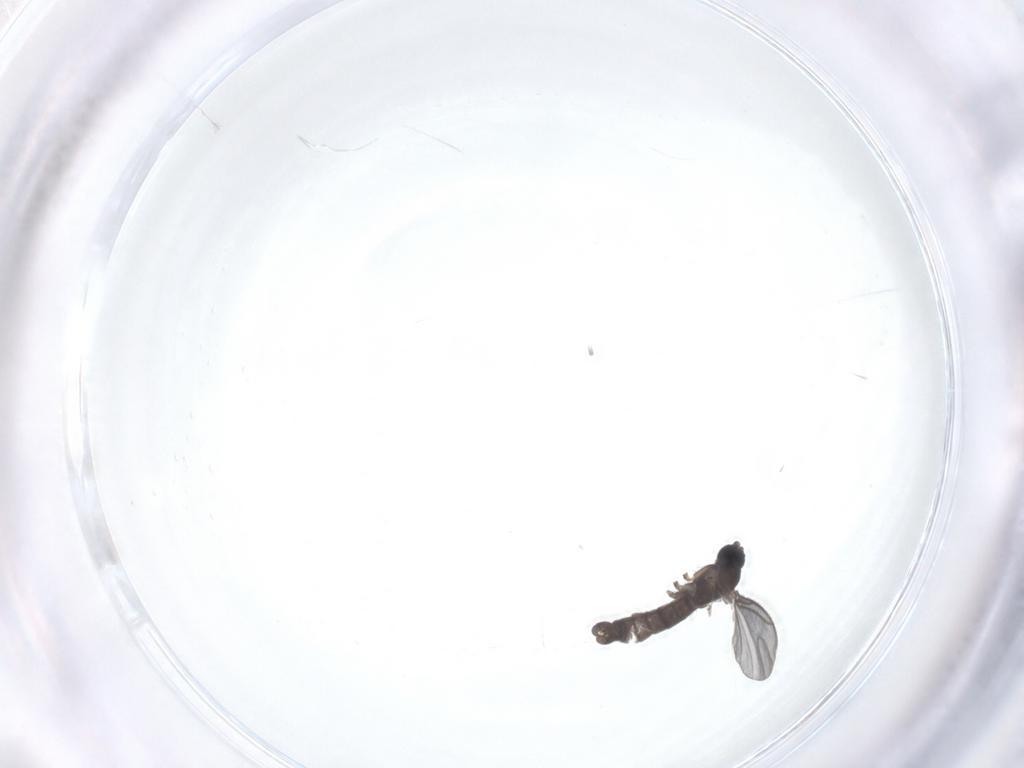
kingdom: Animalia
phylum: Arthropoda
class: Insecta
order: Diptera
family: Sciaridae
